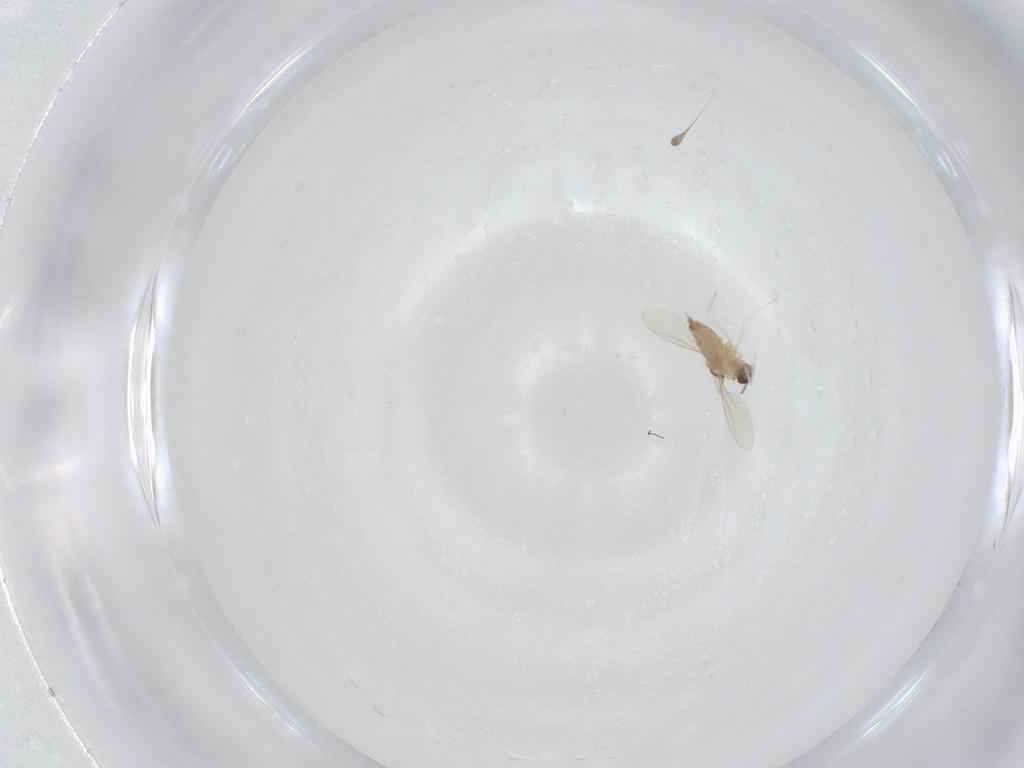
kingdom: Animalia
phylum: Arthropoda
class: Insecta
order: Diptera
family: Cecidomyiidae
